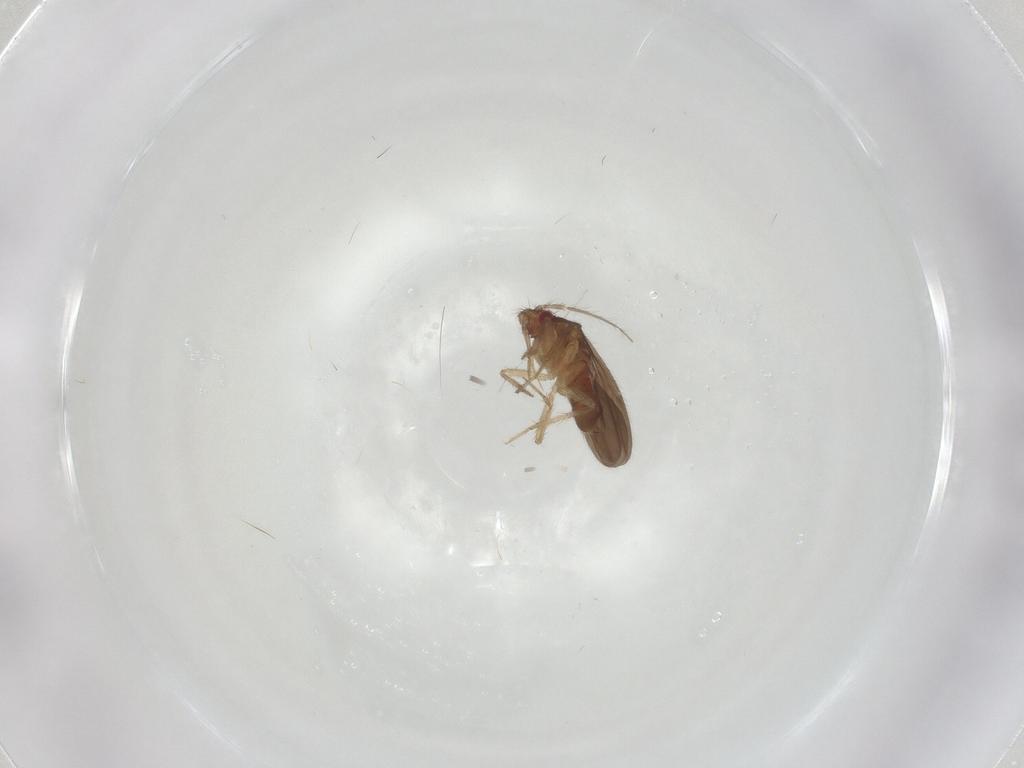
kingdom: Animalia
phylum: Arthropoda
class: Insecta
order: Hemiptera
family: Ceratocombidae
